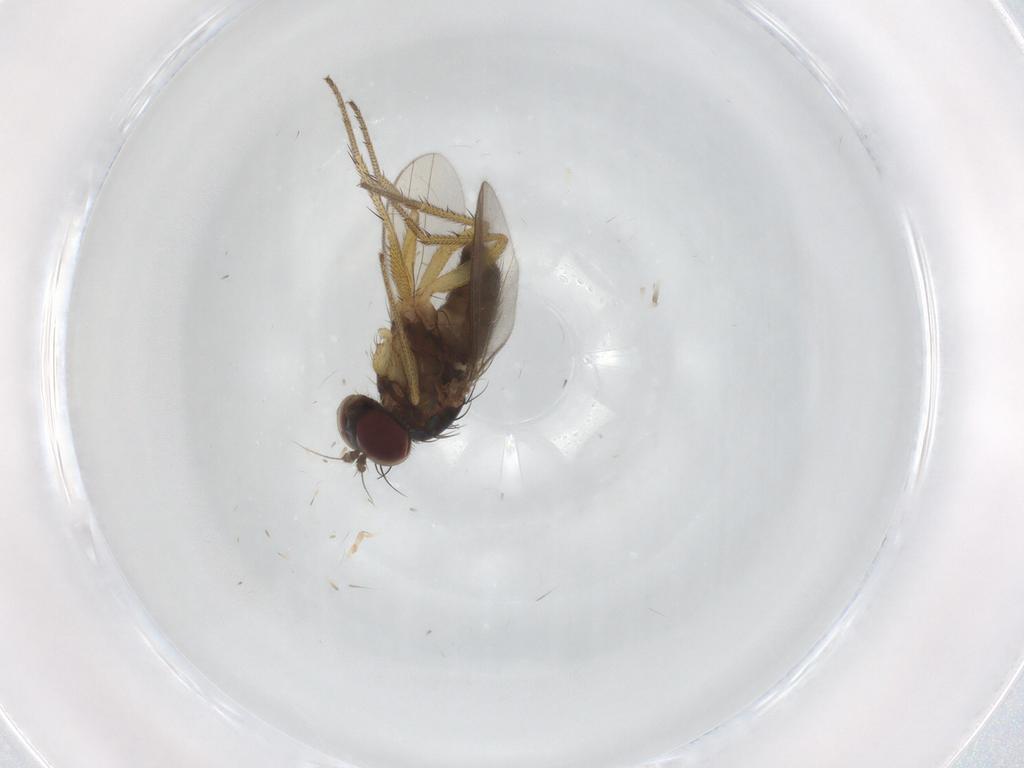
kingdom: Animalia
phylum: Arthropoda
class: Insecta
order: Diptera
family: Dolichopodidae
